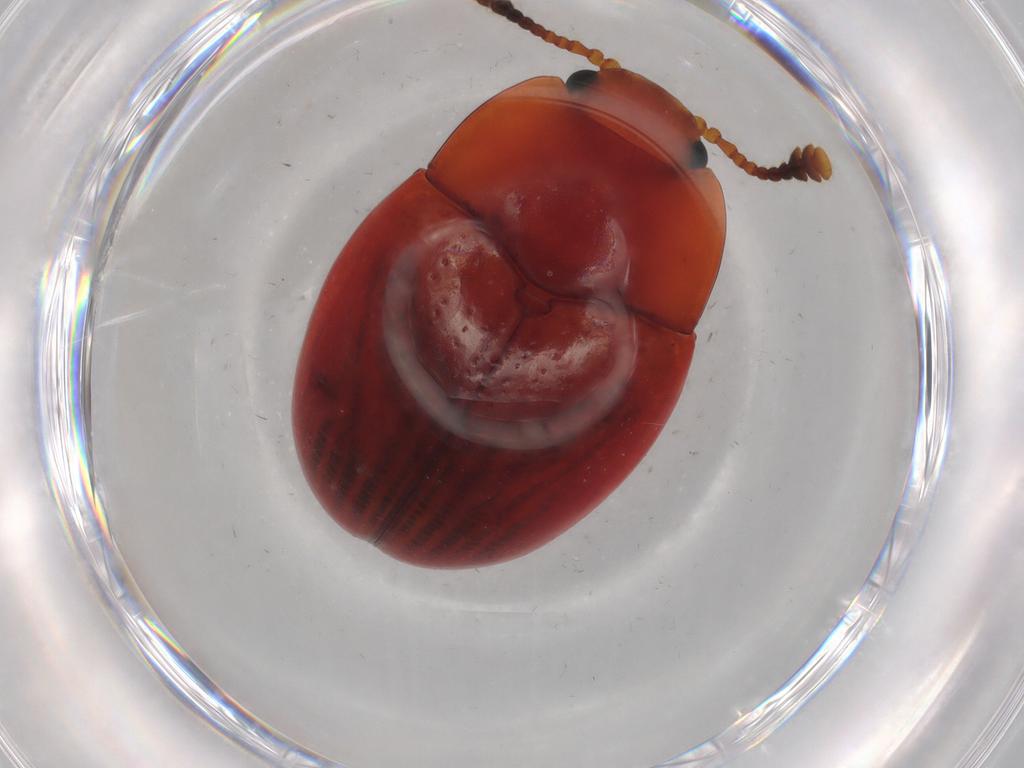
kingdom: Animalia
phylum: Arthropoda
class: Insecta
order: Coleoptera
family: Erotylidae
